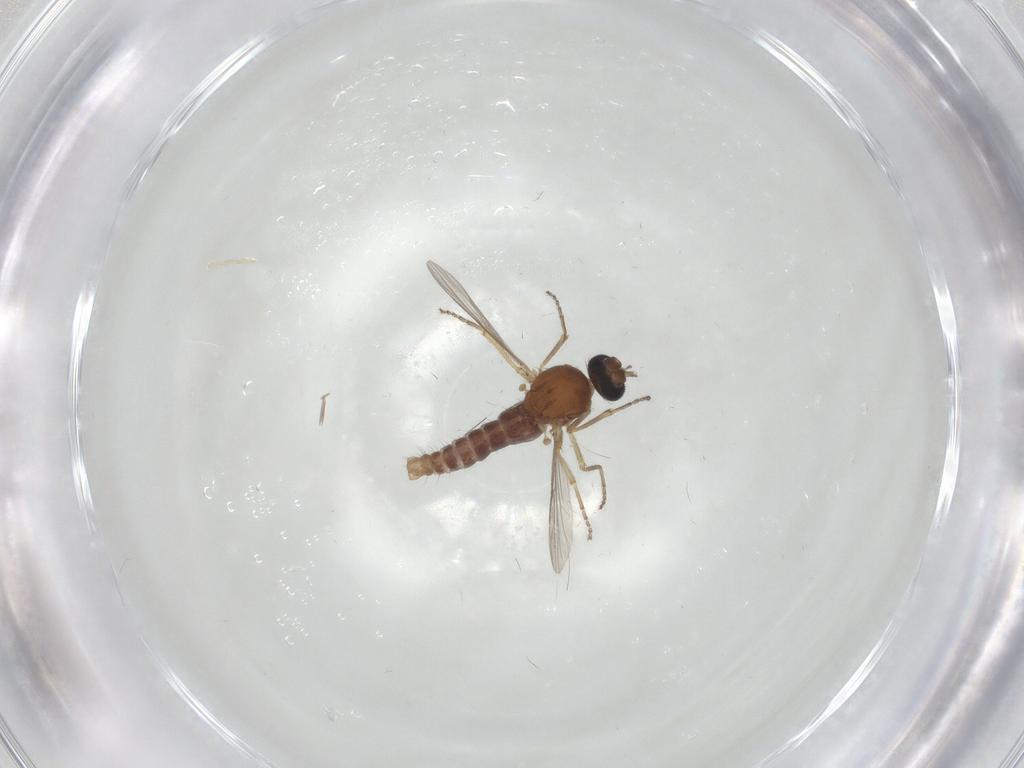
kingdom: Animalia
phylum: Arthropoda
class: Insecta
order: Diptera
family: Ceratopogonidae
